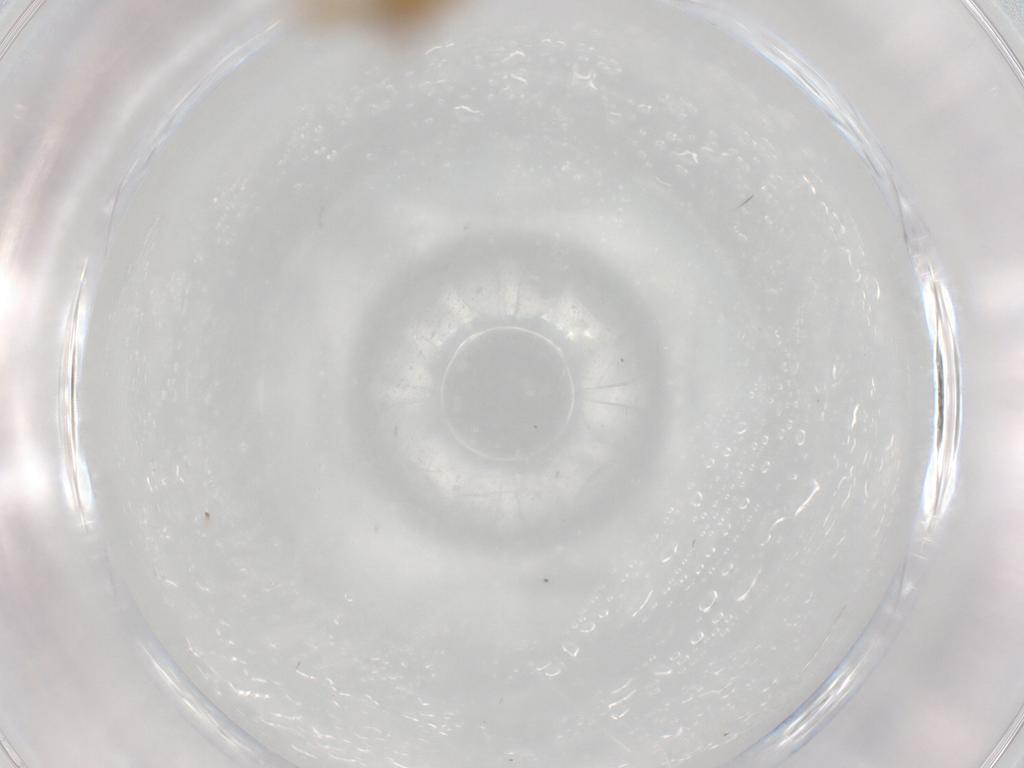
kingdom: Animalia
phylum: Arthropoda
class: Insecta
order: Diptera
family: Chironomidae
